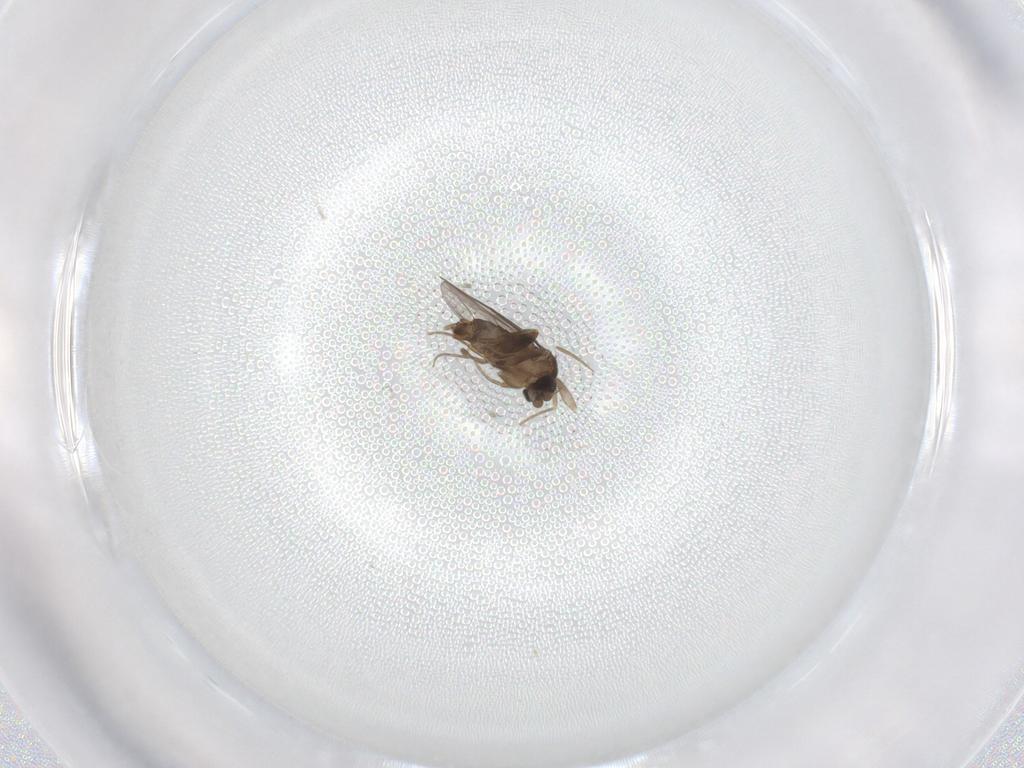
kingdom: Animalia
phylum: Arthropoda
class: Insecta
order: Diptera
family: Phoridae
